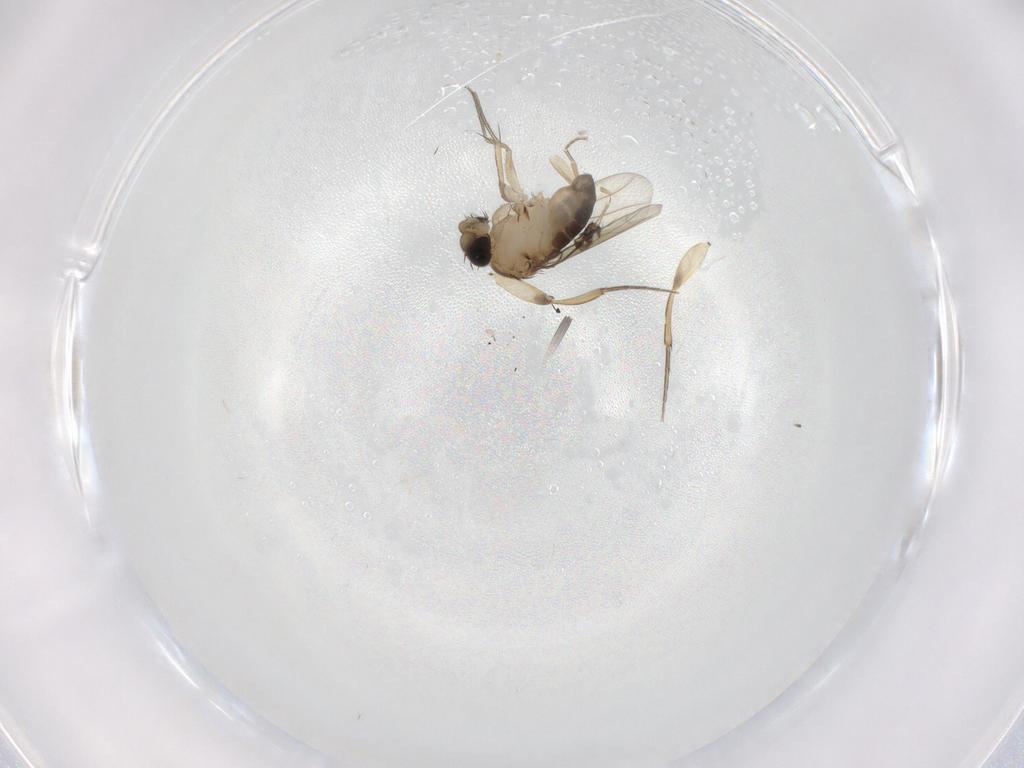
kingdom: Animalia
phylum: Arthropoda
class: Insecta
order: Diptera
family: Phoridae
